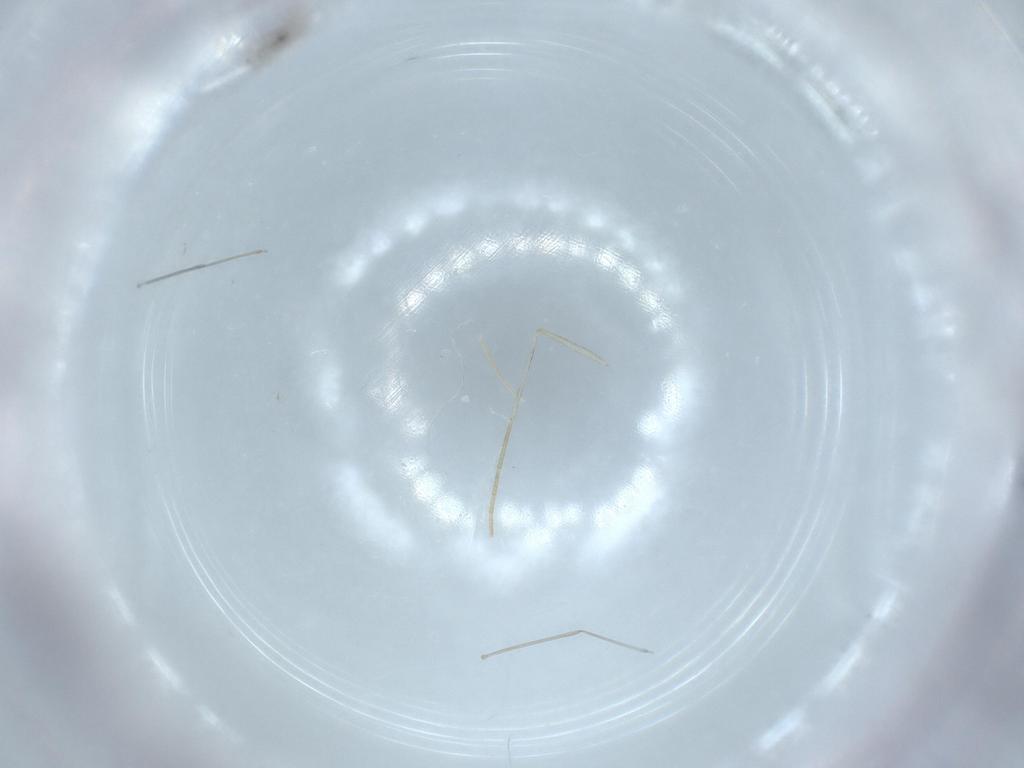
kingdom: Animalia
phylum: Arthropoda
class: Insecta
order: Diptera
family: Cecidomyiidae
